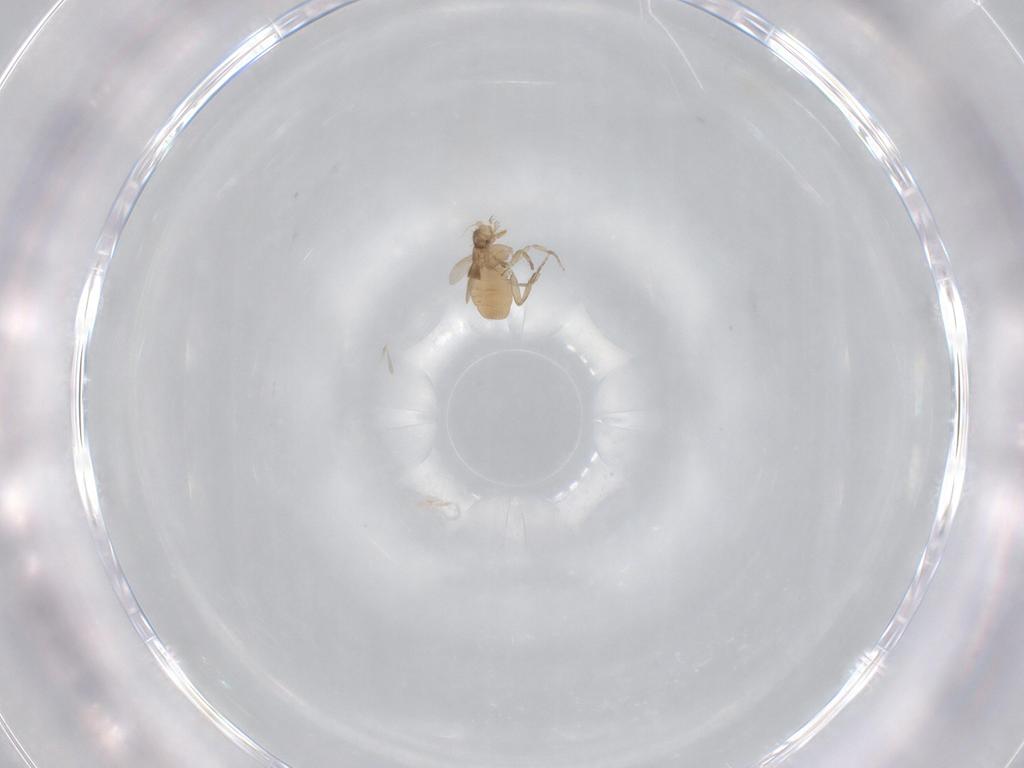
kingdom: Animalia
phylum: Arthropoda
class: Insecta
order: Diptera
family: Phoridae
